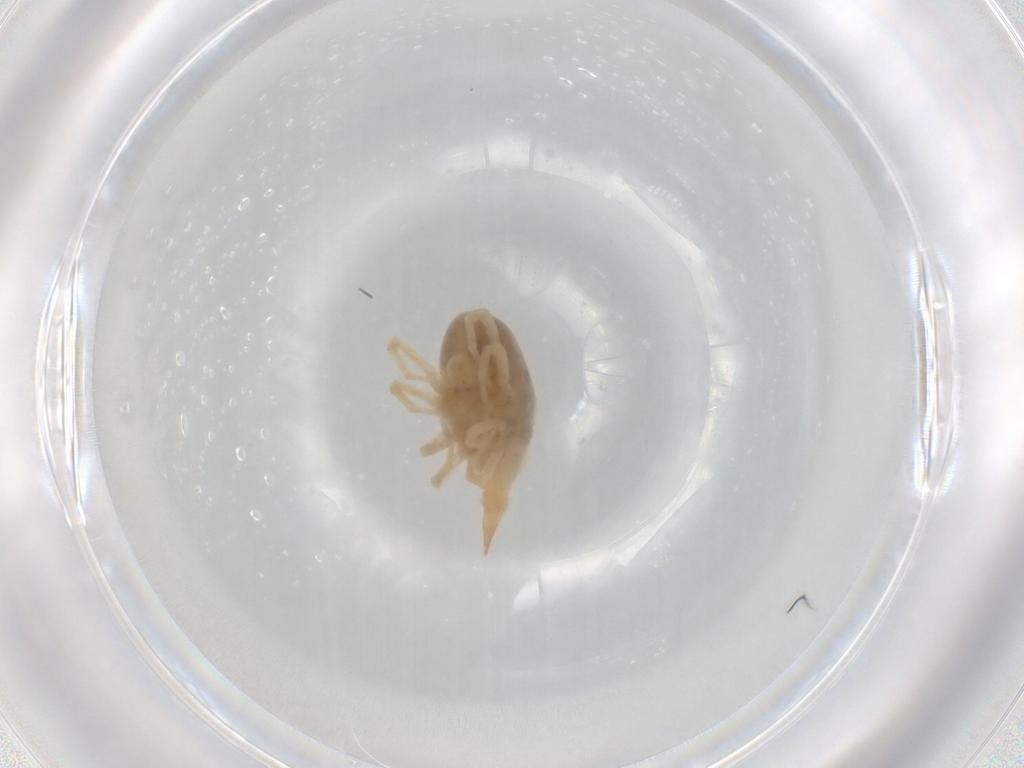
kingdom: Animalia
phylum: Arthropoda
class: Arachnida
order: Trombidiformes
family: Bdellidae
